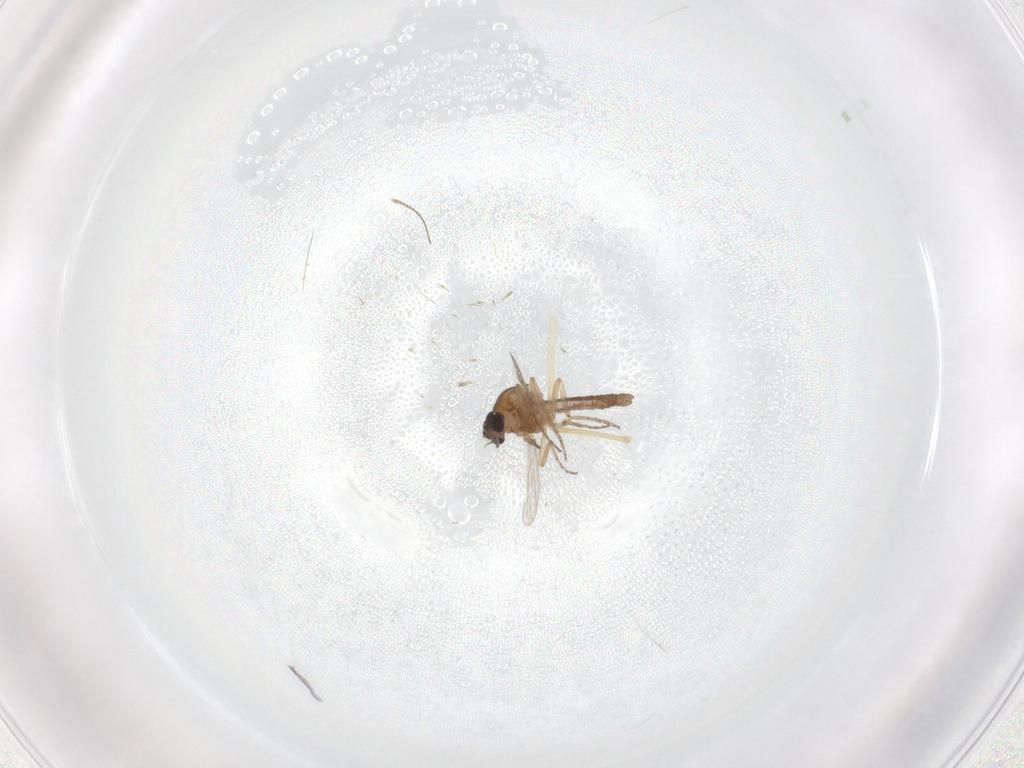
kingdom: Animalia
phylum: Arthropoda
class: Insecta
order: Diptera
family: Chironomidae
